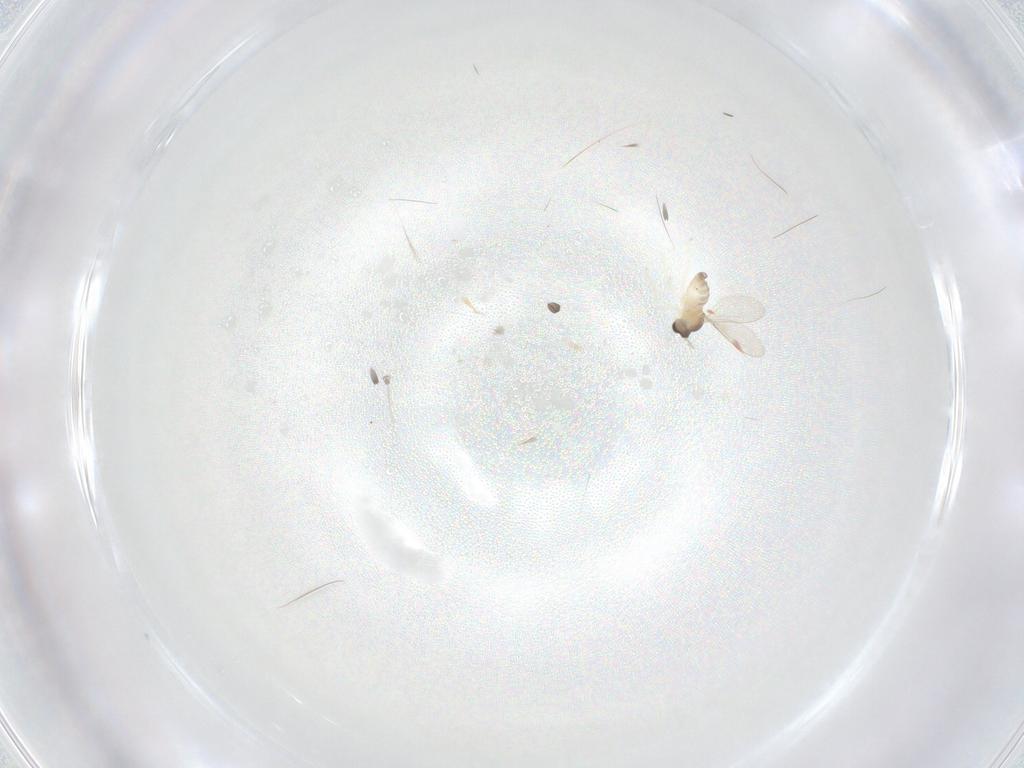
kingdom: Animalia
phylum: Arthropoda
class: Insecta
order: Diptera
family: Cecidomyiidae
